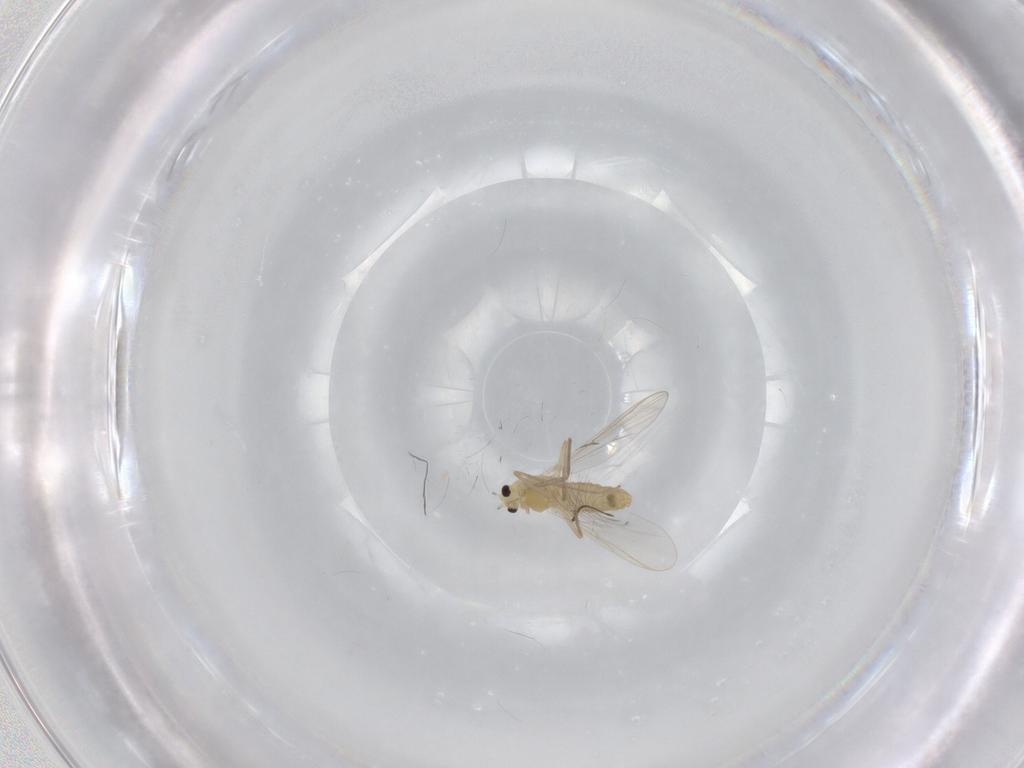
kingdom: Animalia
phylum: Arthropoda
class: Insecta
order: Diptera
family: Chironomidae
